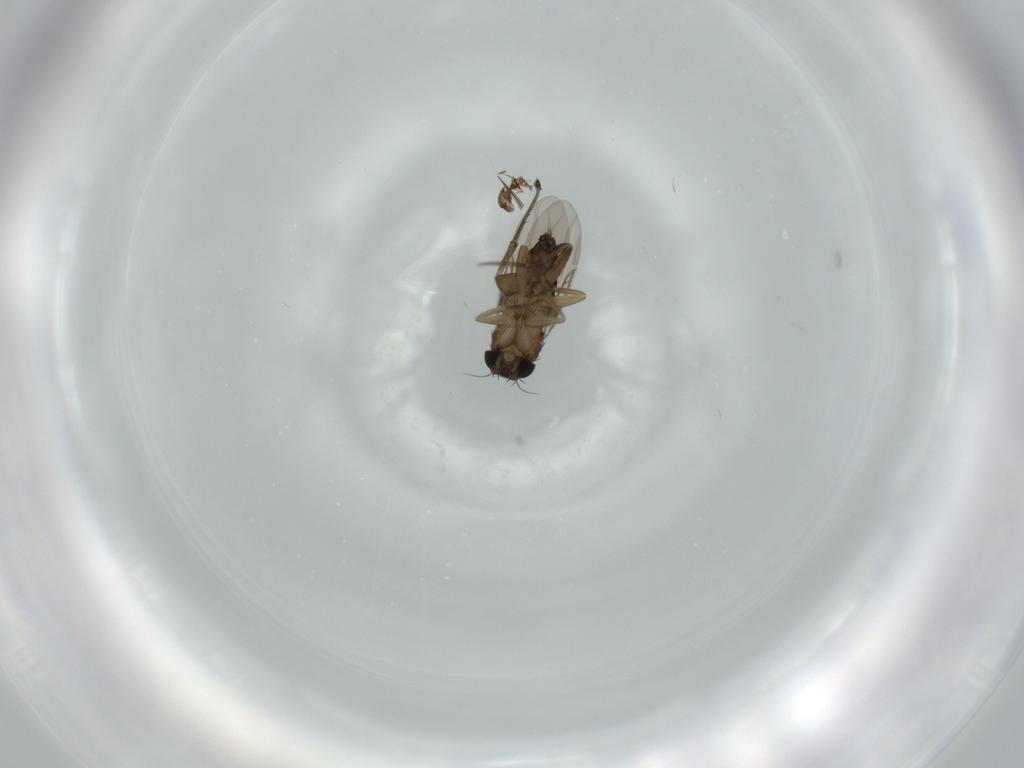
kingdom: Animalia
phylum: Arthropoda
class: Insecta
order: Diptera
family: Chironomidae
